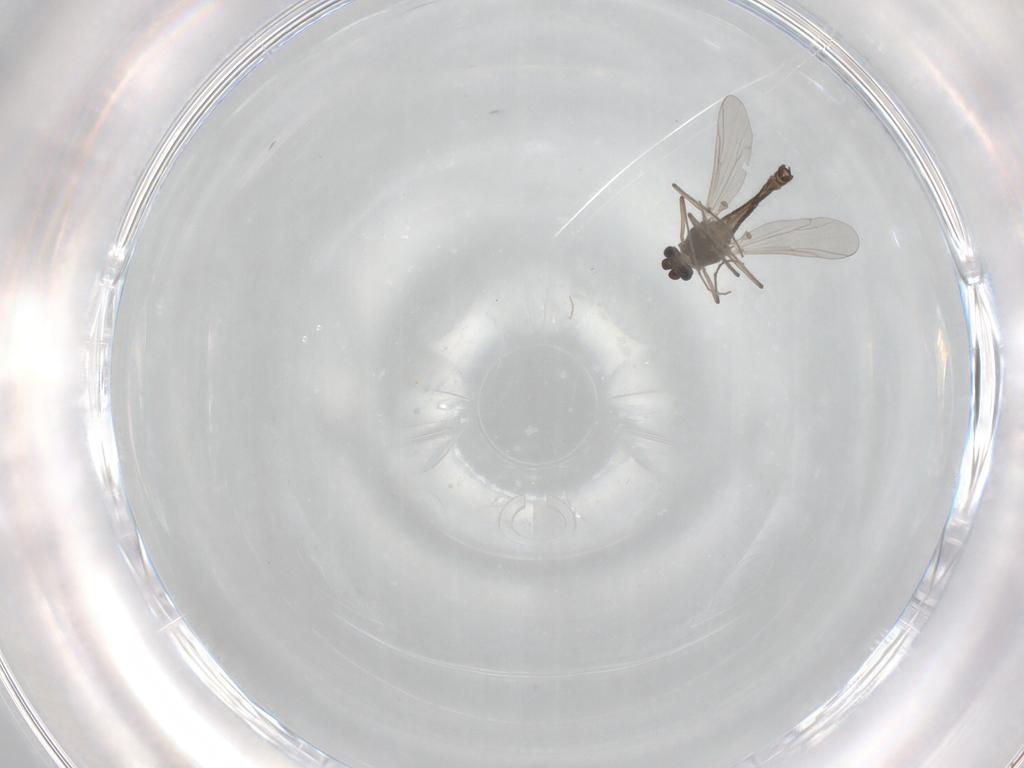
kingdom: Animalia
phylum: Arthropoda
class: Insecta
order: Diptera
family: Chironomidae
